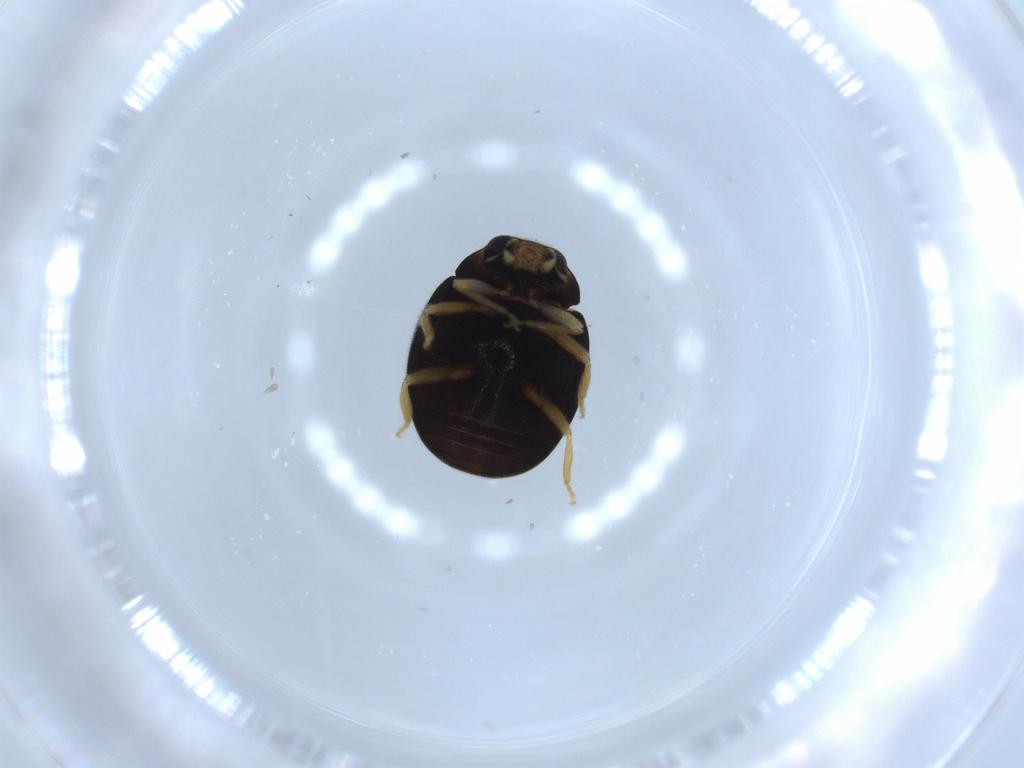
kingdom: Animalia
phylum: Arthropoda
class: Insecta
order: Coleoptera
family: Coccinellidae
